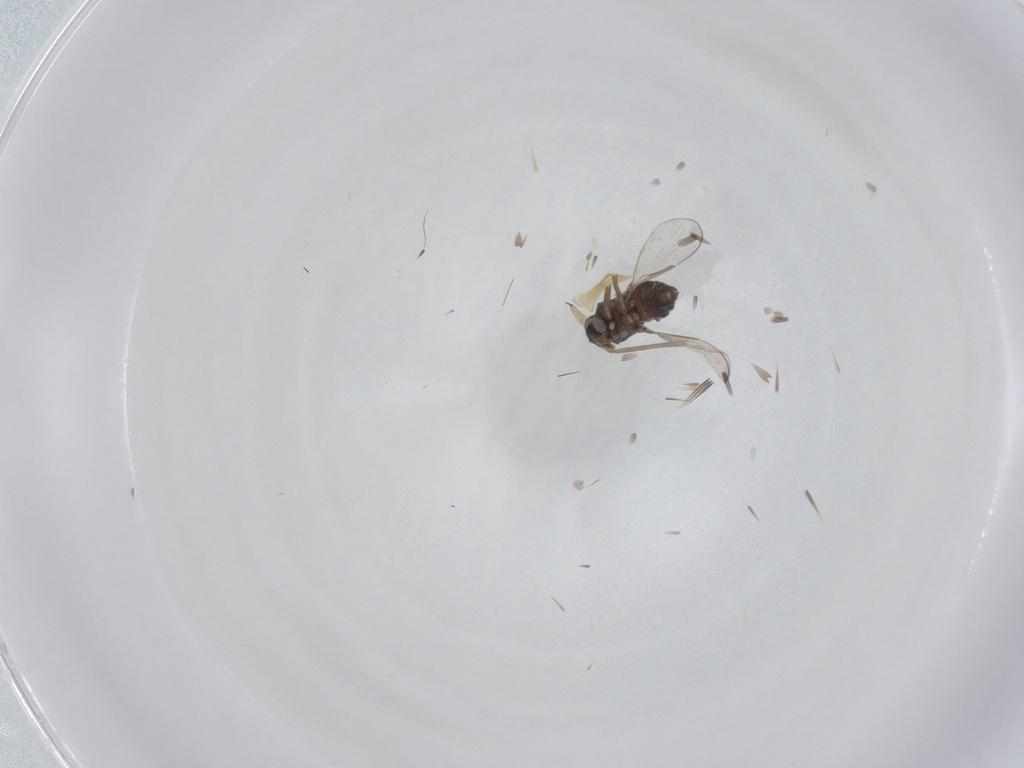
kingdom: Animalia
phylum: Arthropoda
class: Insecta
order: Diptera
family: Ceratopogonidae
